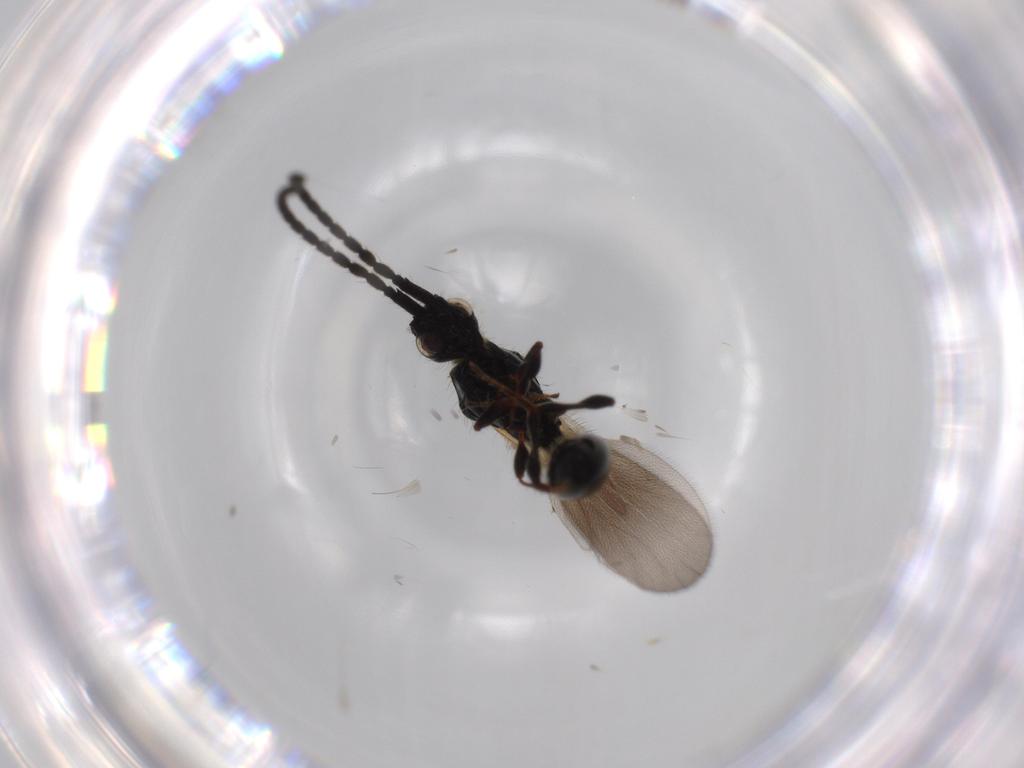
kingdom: Animalia
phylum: Arthropoda
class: Insecta
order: Hymenoptera
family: Diapriidae
